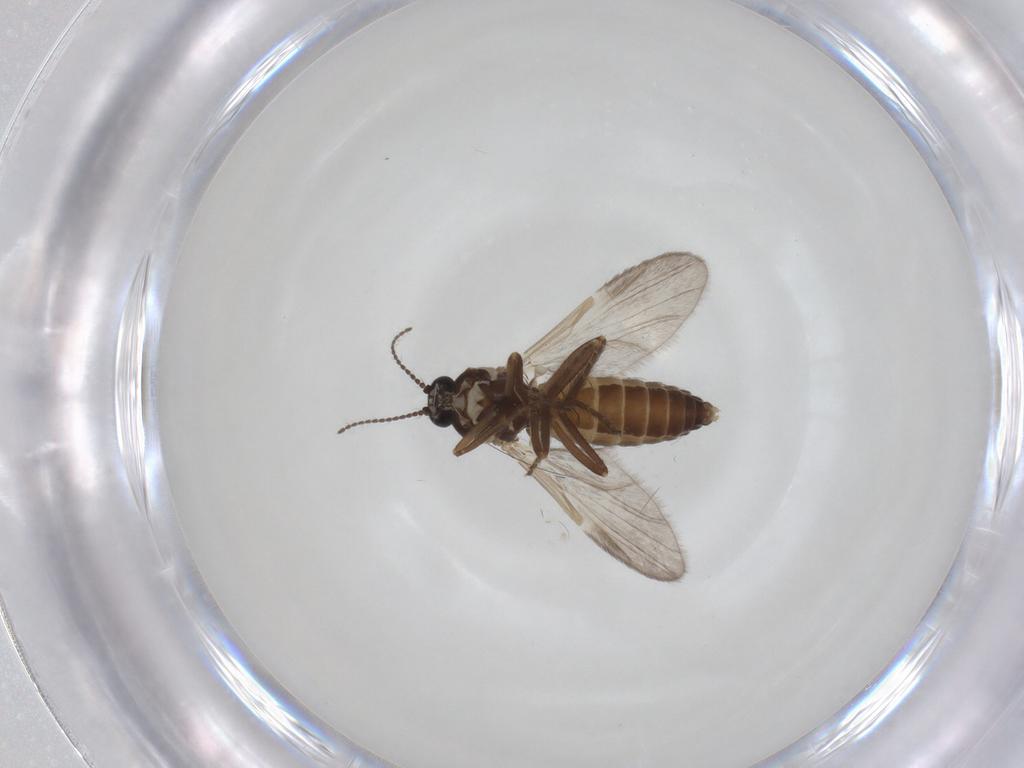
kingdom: Animalia
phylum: Arthropoda
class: Insecta
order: Diptera
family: Ceratopogonidae
